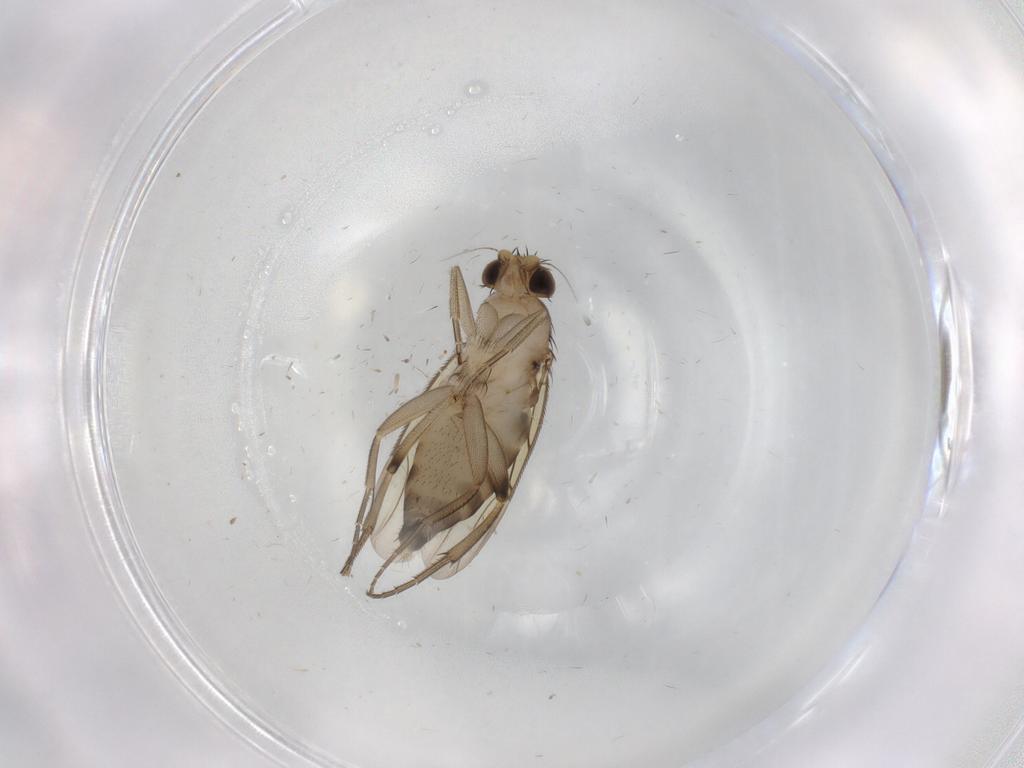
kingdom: Animalia
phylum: Arthropoda
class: Insecta
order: Diptera
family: Phoridae
